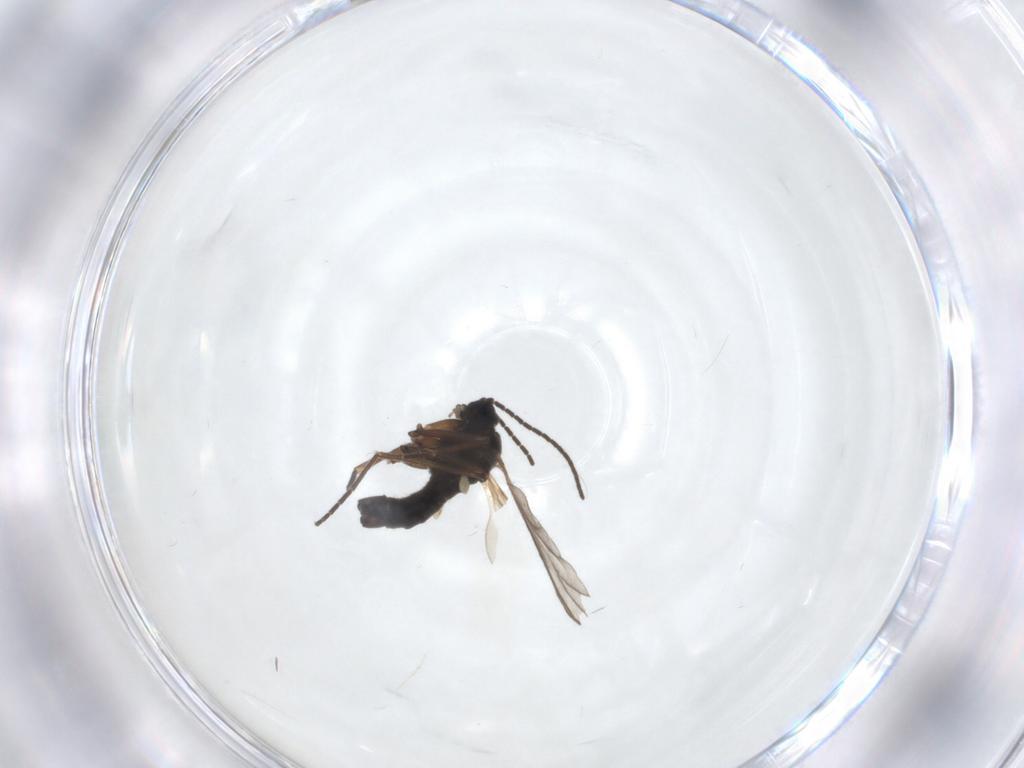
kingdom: Animalia
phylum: Arthropoda
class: Insecta
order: Diptera
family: Sciaridae
